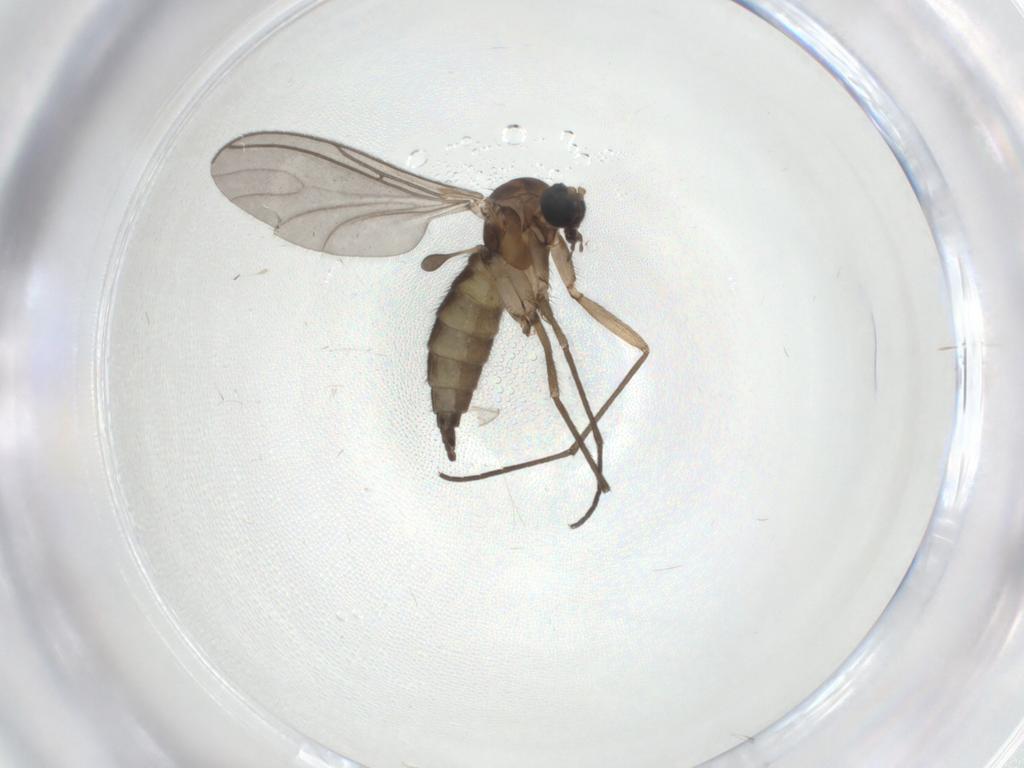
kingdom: Animalia
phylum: Arthropoda
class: Insecta
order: Diptera
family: Sciaridae
